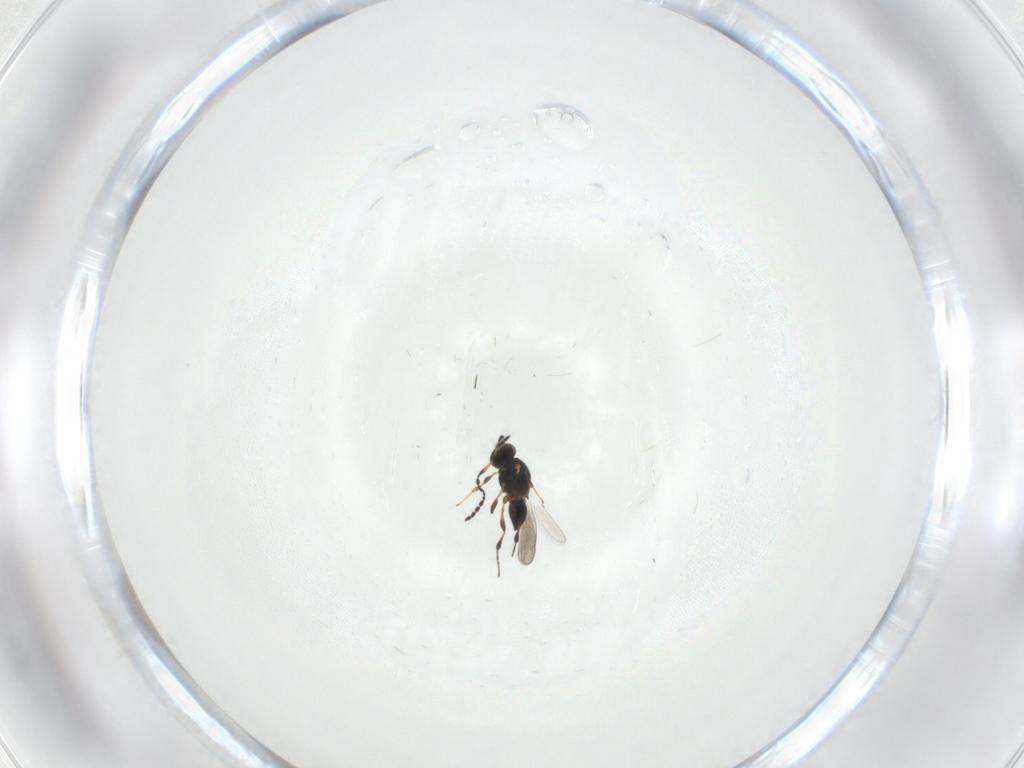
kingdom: Animalia
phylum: Arthropoda
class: Insecta
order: Hymenoptera
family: Platygastridae
